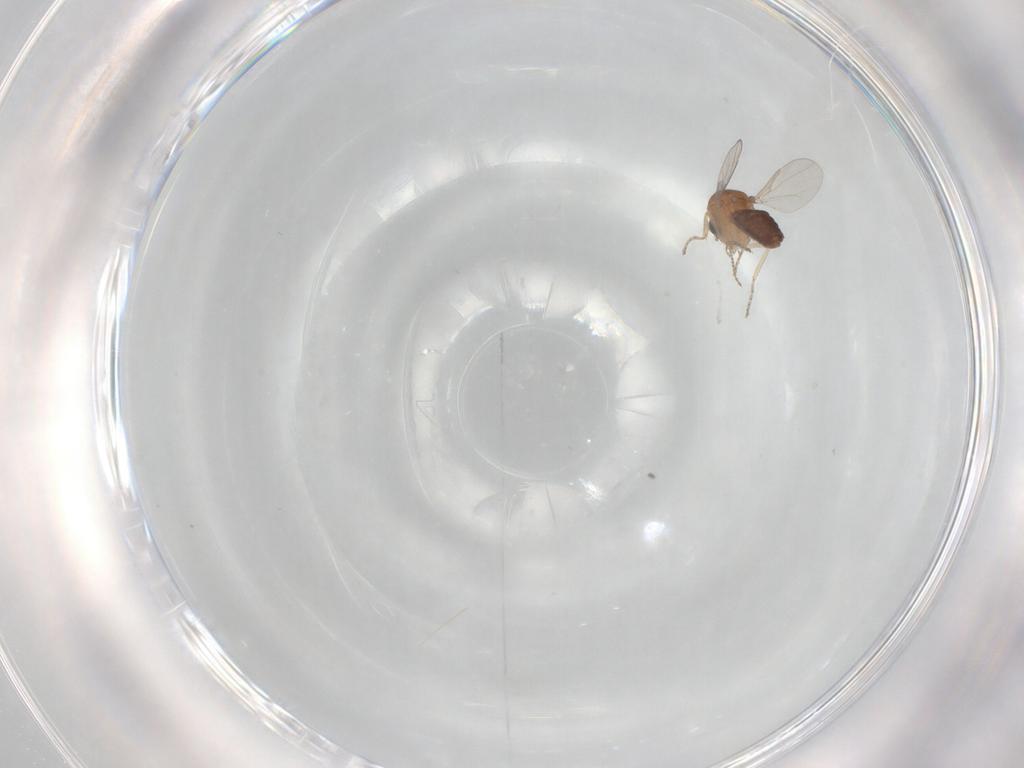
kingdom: Animalia
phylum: Arthropoda
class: Insecta
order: Diptera
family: Ceratopogonidae
